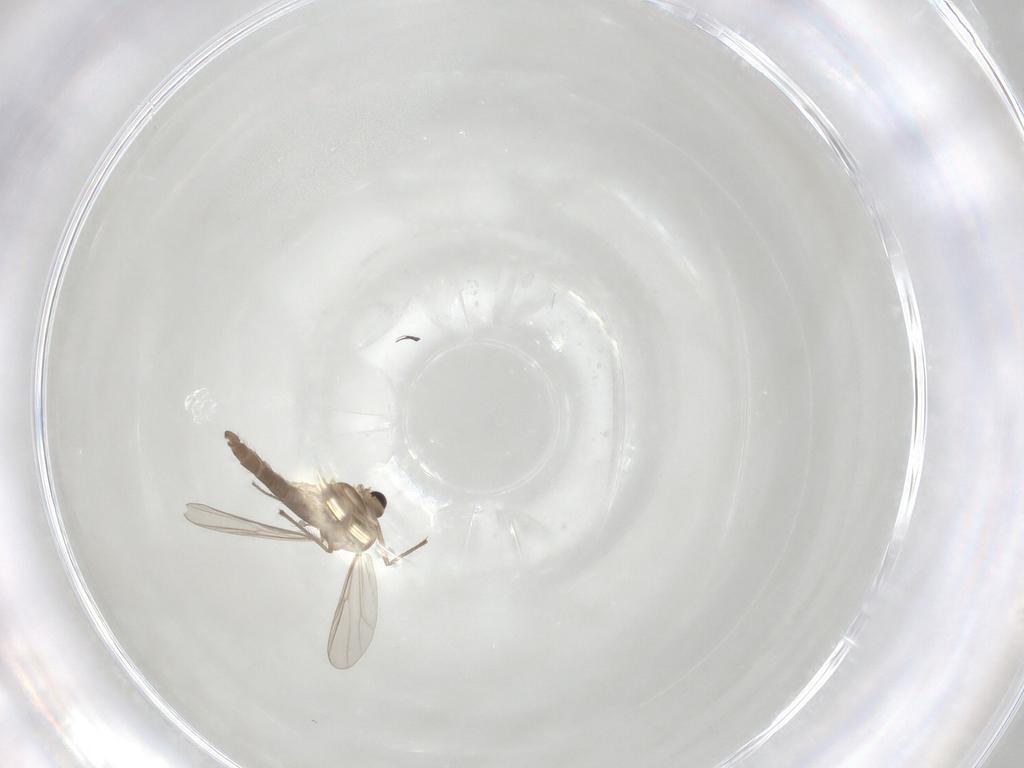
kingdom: Animalia
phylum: Arthropoda
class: Insecta
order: Diptera
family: Chironomidae
